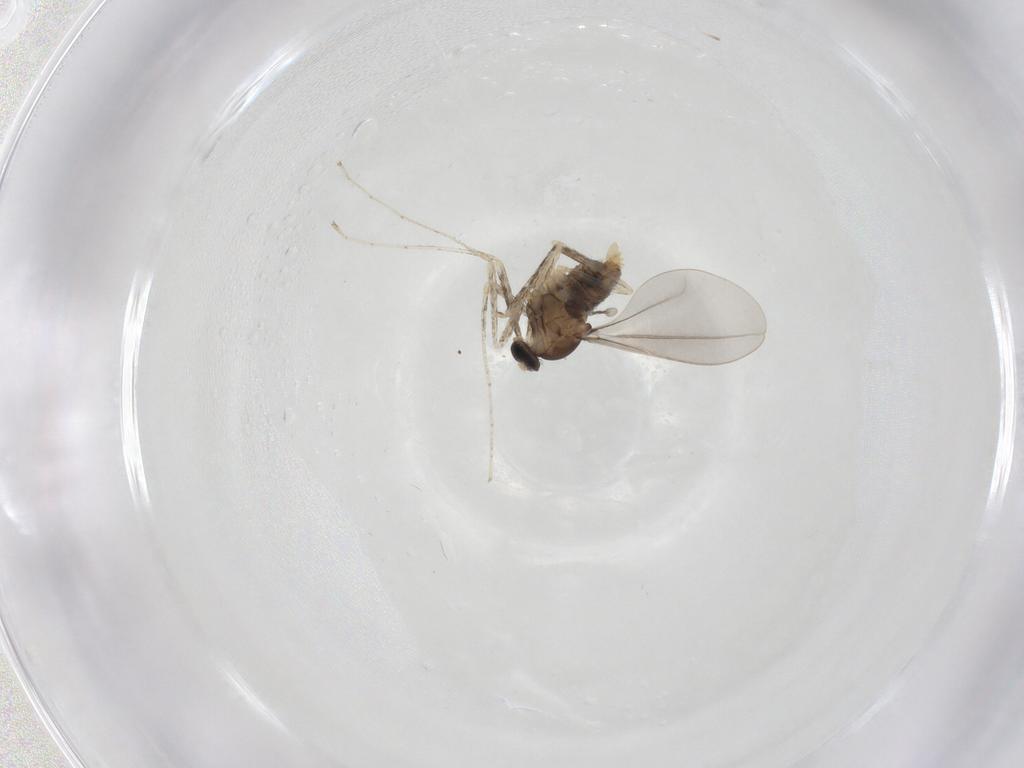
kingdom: Animalia
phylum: Arthropoda
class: Insecta
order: Diptera
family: Cecidomyiidae
